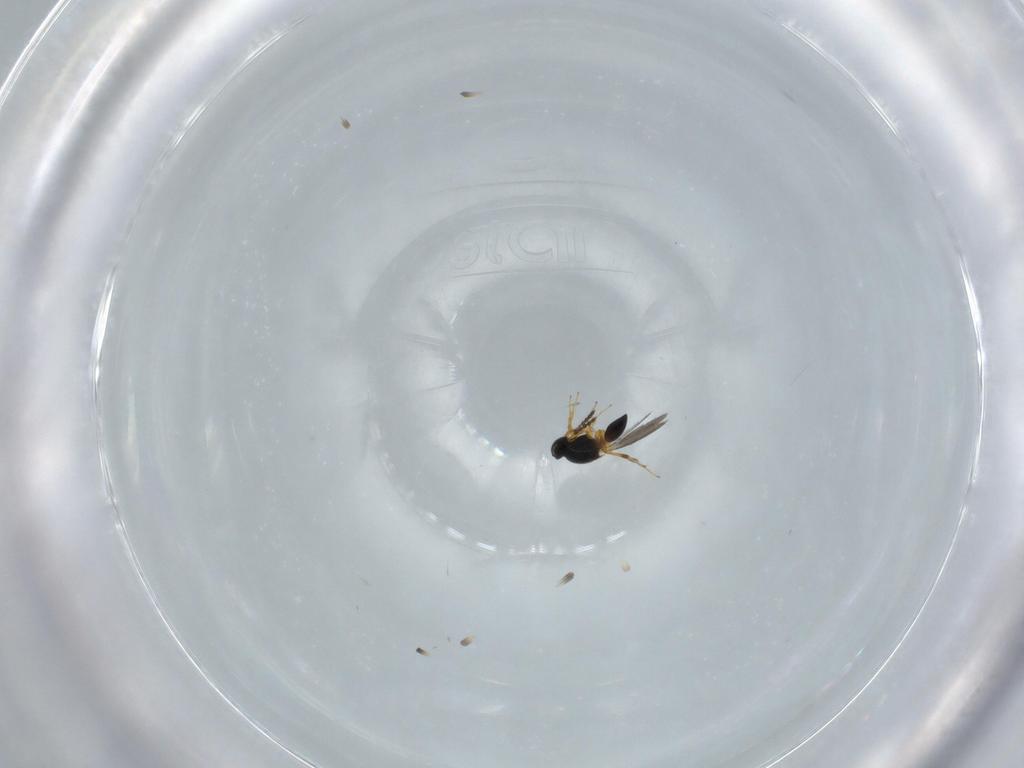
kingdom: Animalia
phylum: Arthropoda
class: Insecta
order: Hymenoptera
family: Platygastridae
